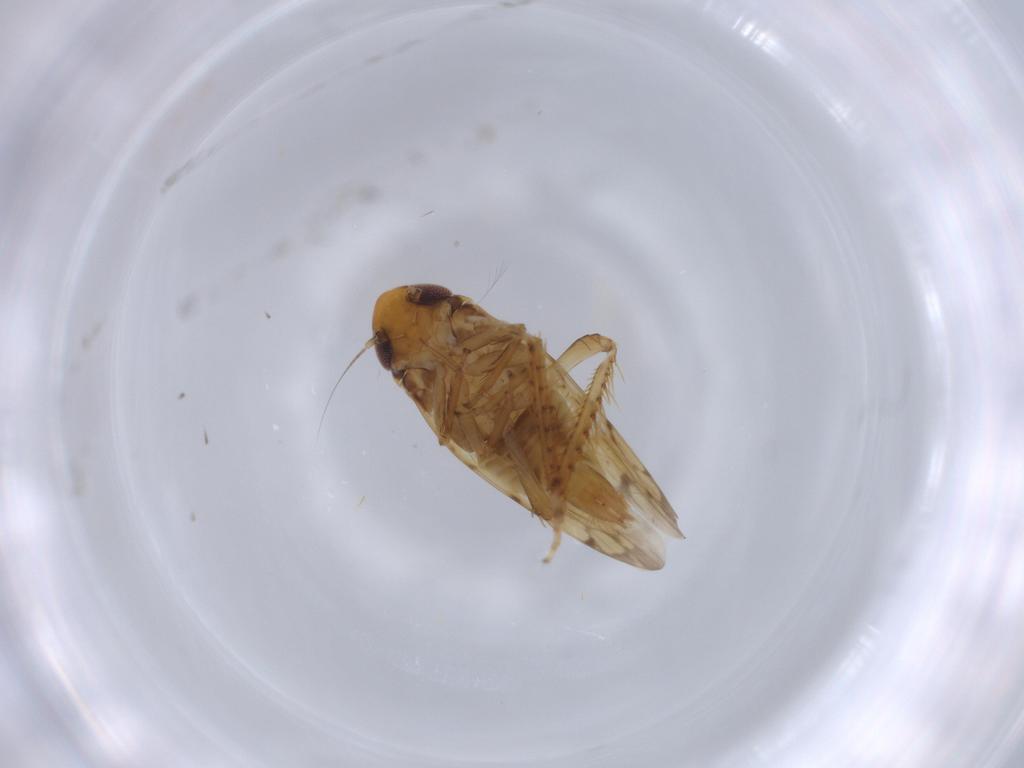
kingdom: Animalia
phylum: Arthropoda
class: Insecta
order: Hemiptera
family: Cicadellidae
